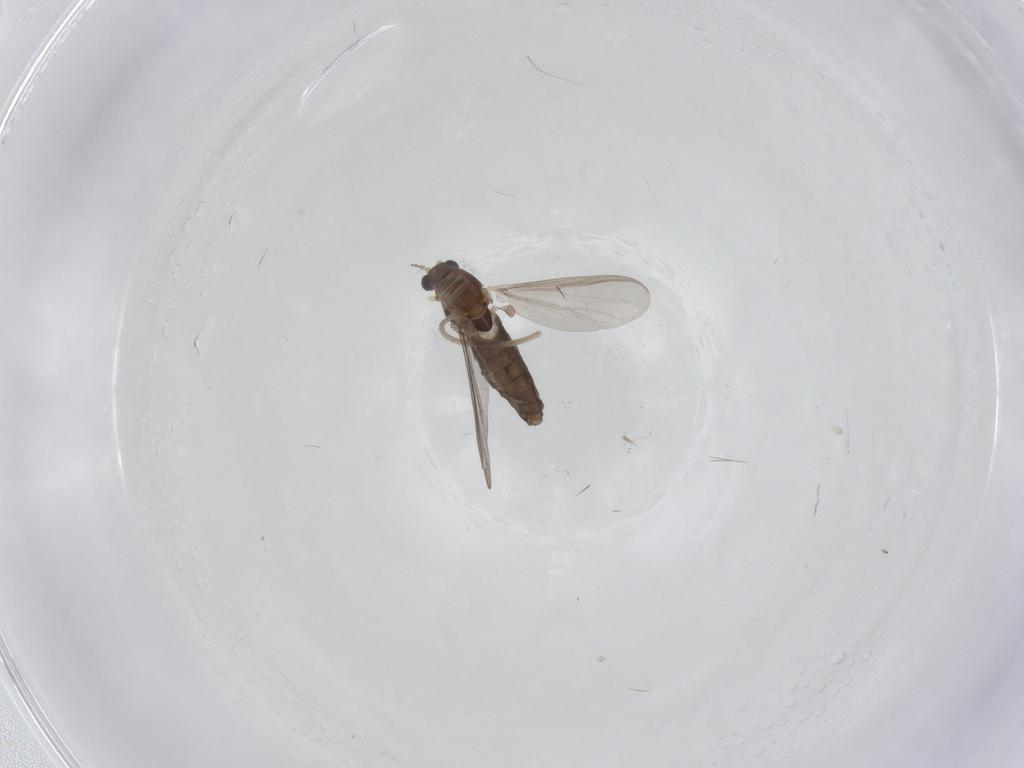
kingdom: Animalia
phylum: Arthropoda
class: Insecta
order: Diptera
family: Chironomidae
